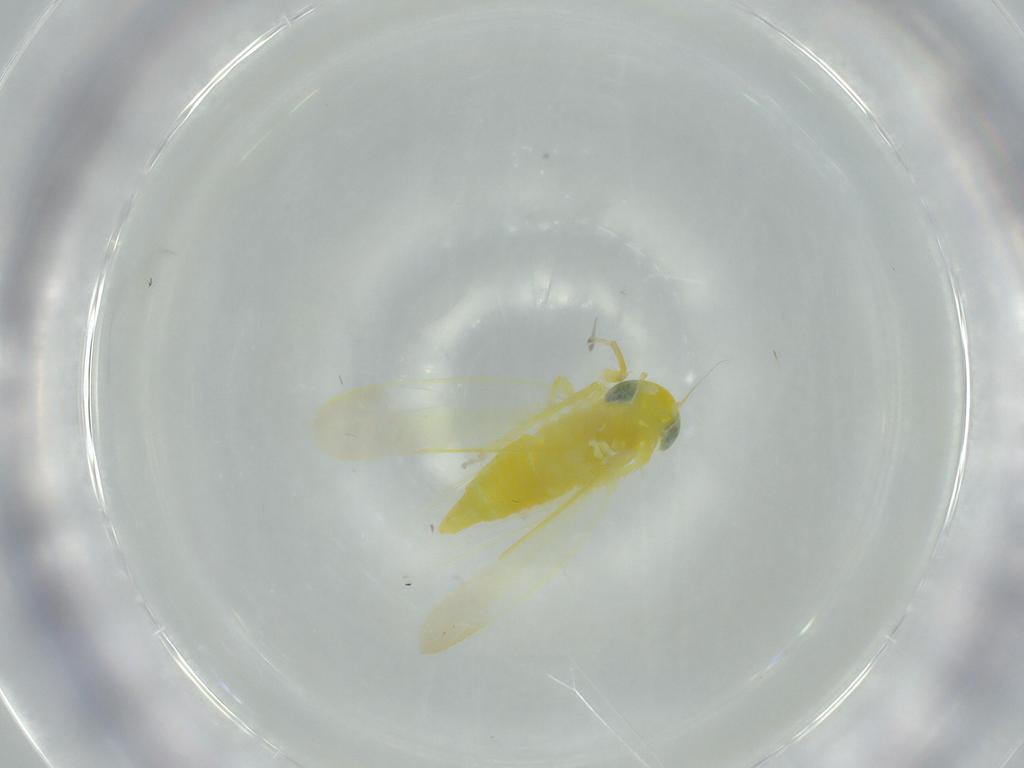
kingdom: Animalia
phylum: Arthropoda
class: Insecta
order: Hemiptera
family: Cicadellidae
